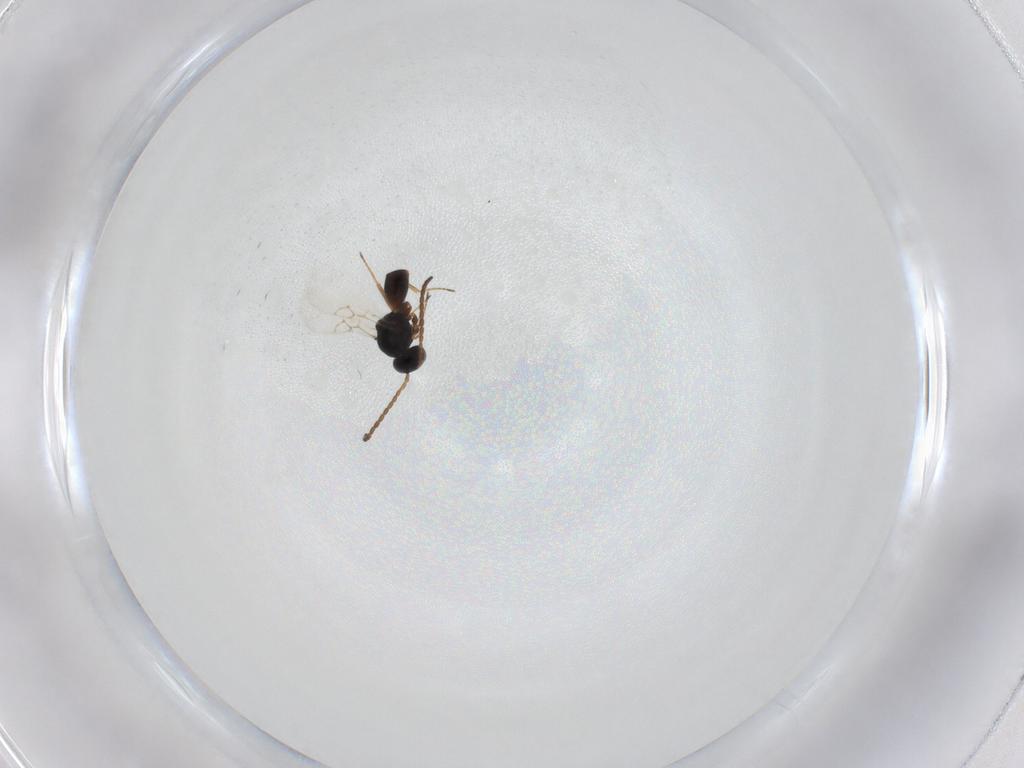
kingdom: Animalia
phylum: Arthropoda
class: Insecta
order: Hymenoptera
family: Figitidae
